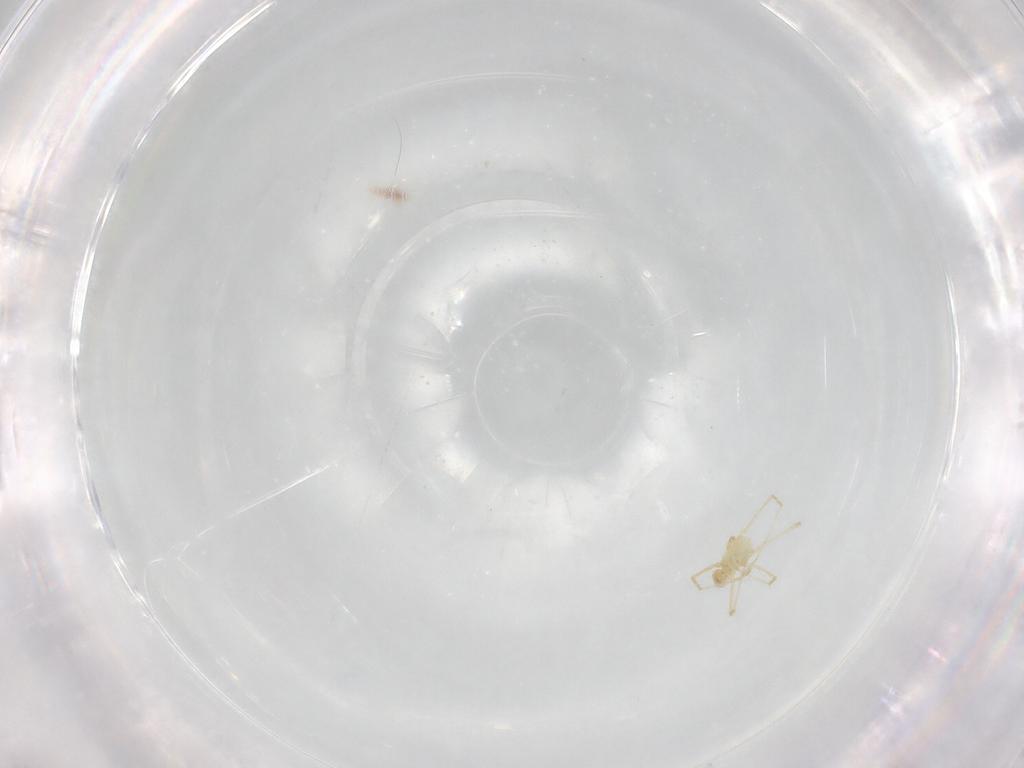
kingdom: Animalia
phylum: Arthropoda
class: Arachnida
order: Trombidiformes
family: Erythraeidae
